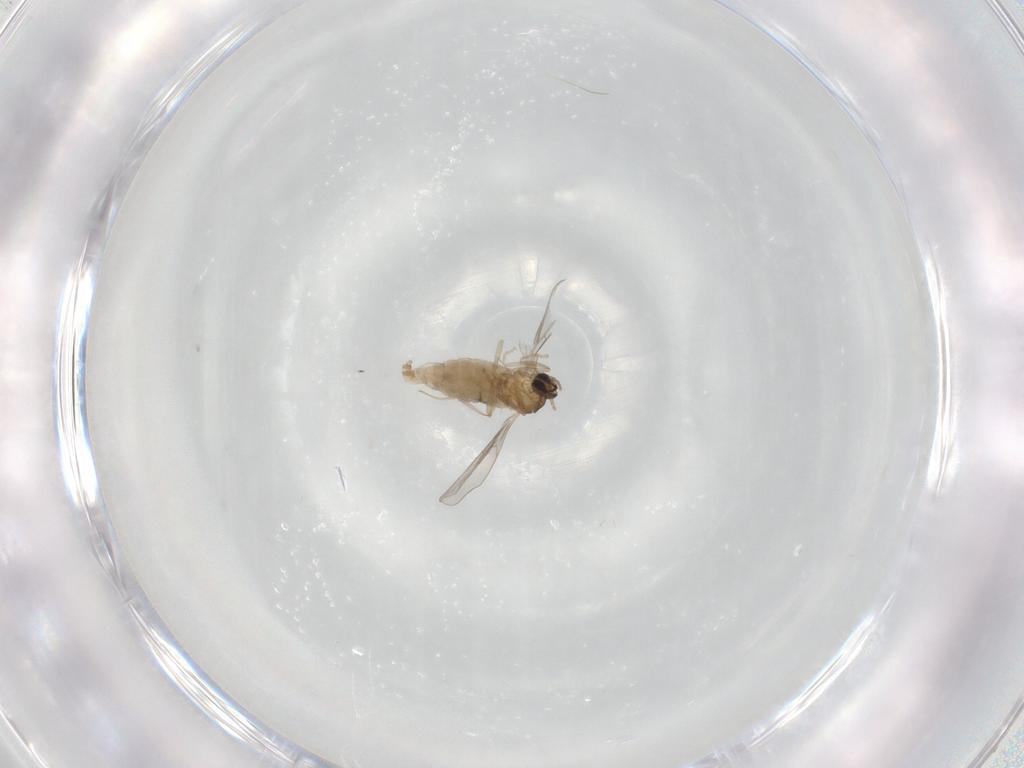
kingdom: Animalia
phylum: Arthropoda
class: Insecta
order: Diptera
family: Cecidomyiidae
